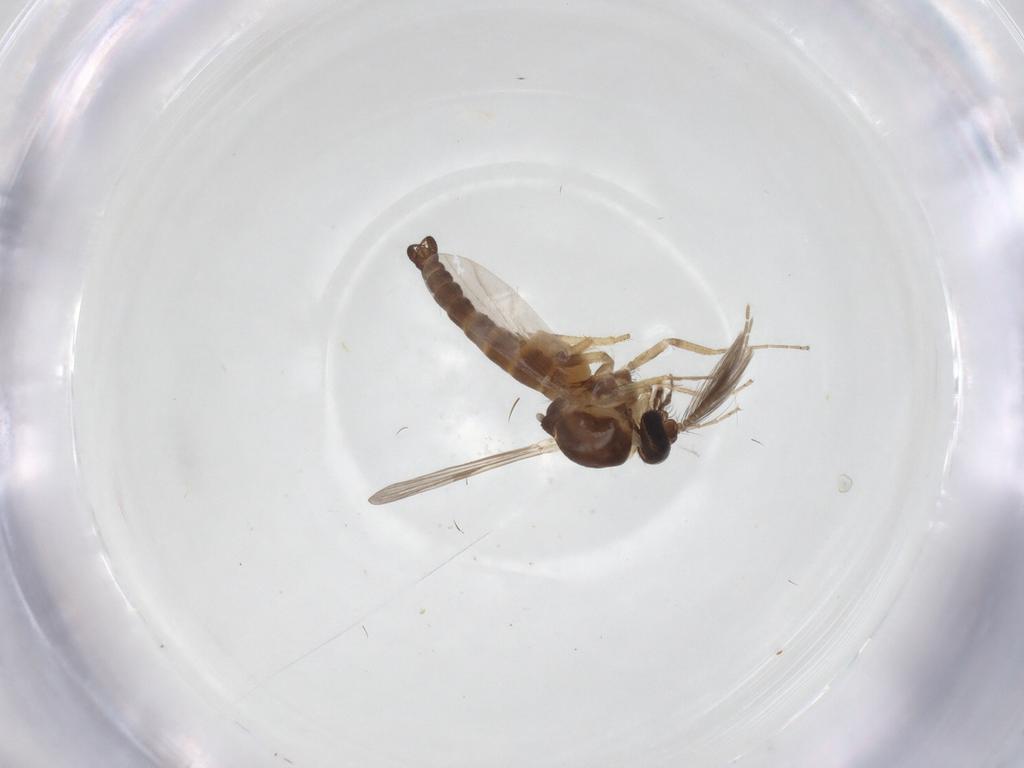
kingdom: Animalia
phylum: Arthropoda
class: Insecta
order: Diptera
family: Ceratopogonidae
